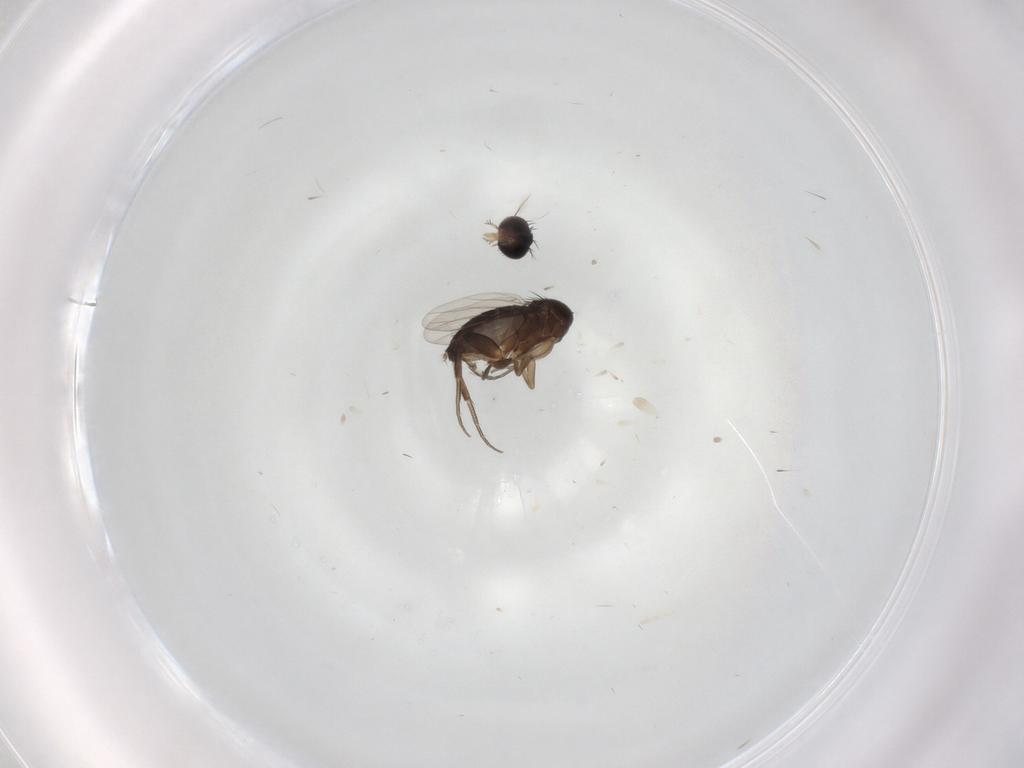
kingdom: Animalia
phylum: Arthropoda
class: Insecta
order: Diptera
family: Phoridae
